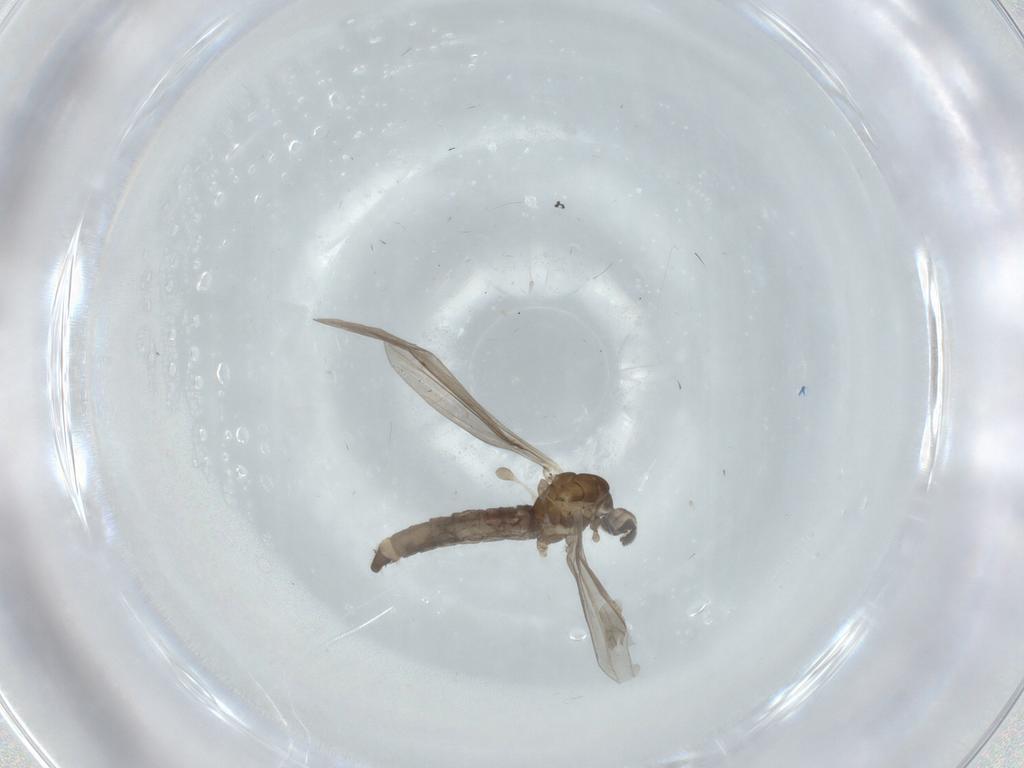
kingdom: Animalia
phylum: Arthropoda
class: Insecta
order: Diptera
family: Limoniidae
